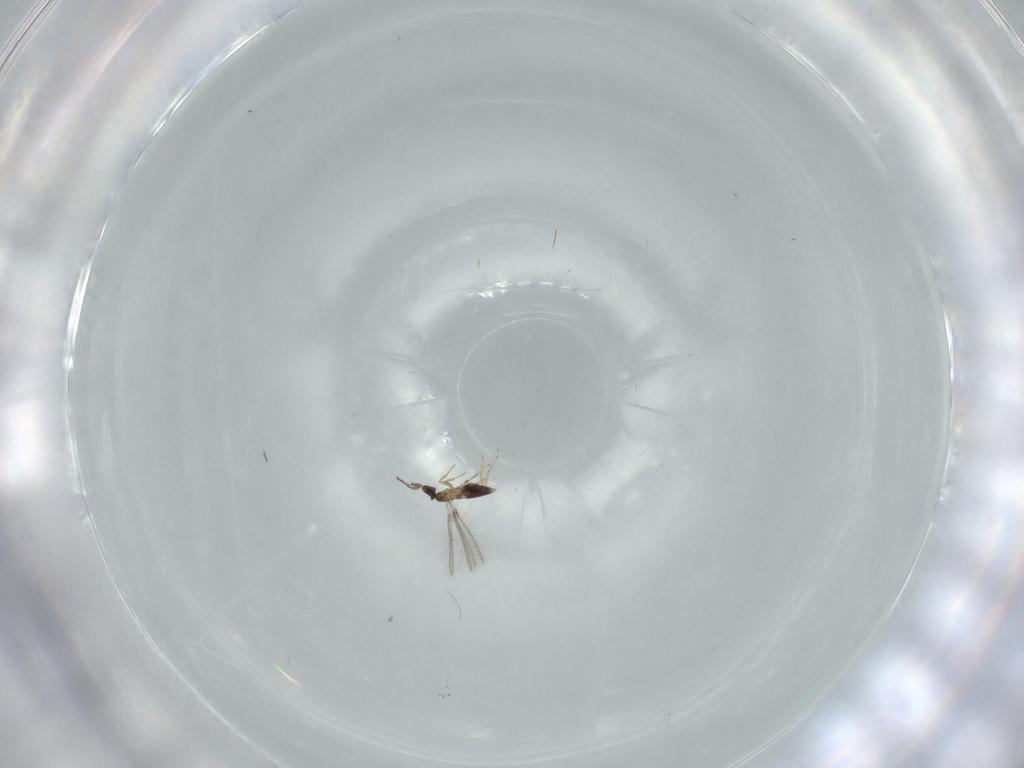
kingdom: Animalia
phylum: Arthropoda
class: Insecta
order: Hymenoptera
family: Mymaridae
